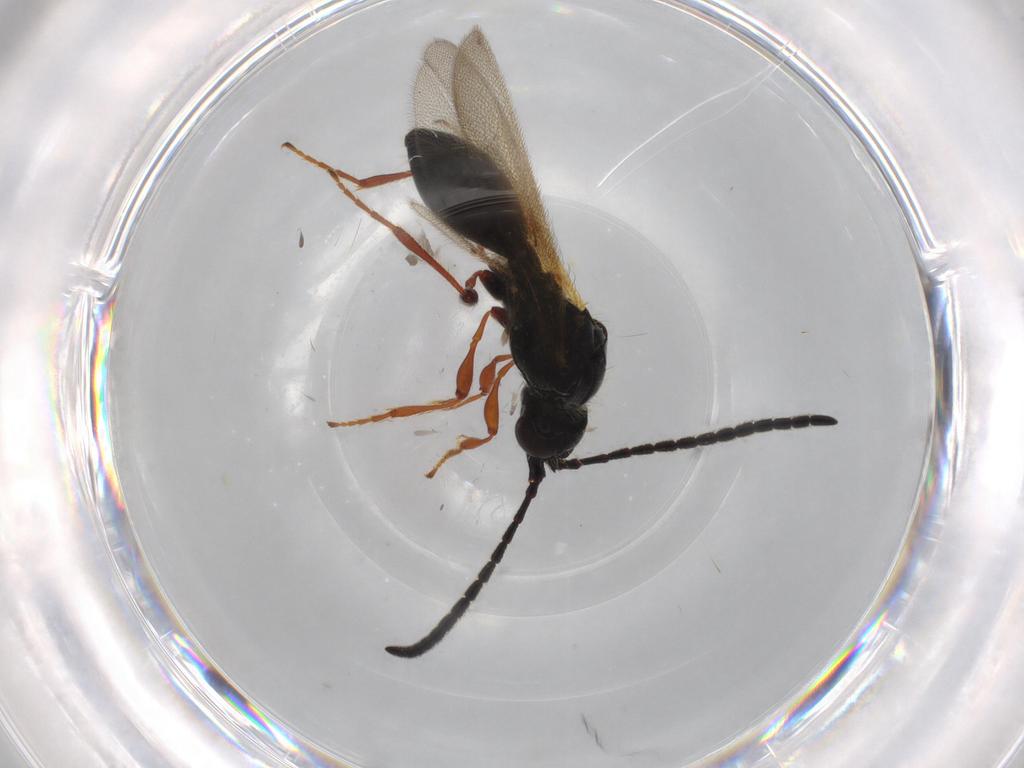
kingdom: Animalia
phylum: Arthropoda
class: Insecta
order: Hymenoptera
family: Diapriidae
